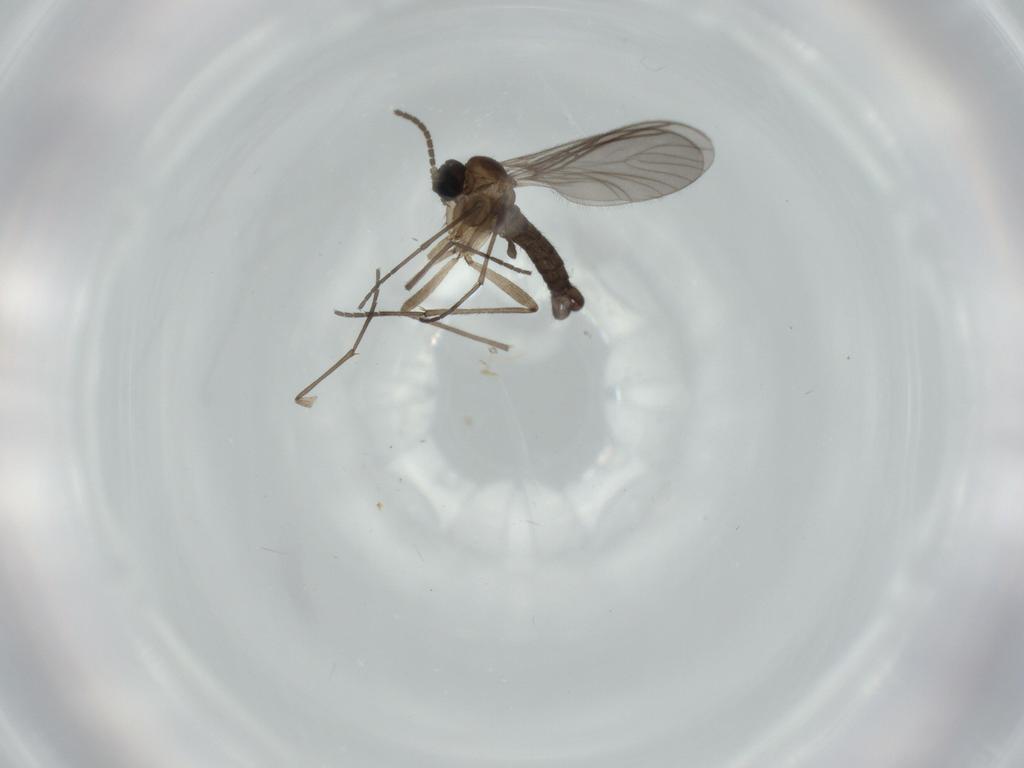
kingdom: Animalia
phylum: Arthropoda
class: Insecta
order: Diptera
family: Sciaridae
